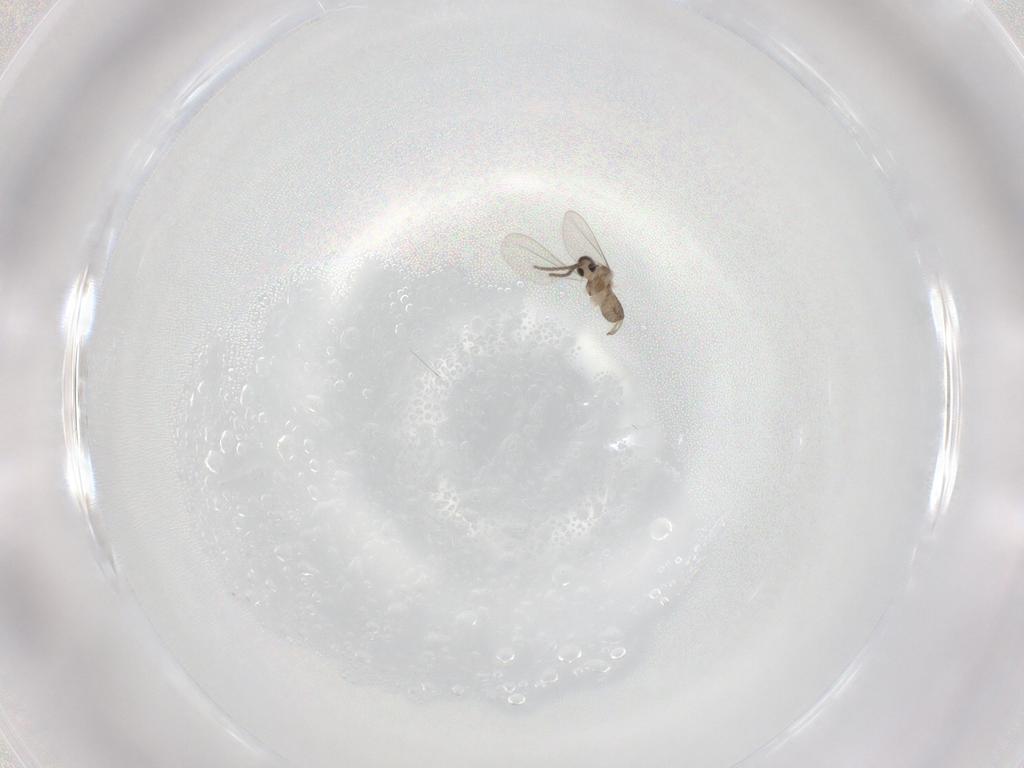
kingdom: Animalia
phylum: Arthropoda
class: Insecta
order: Diptera
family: Cecidomyiidae
